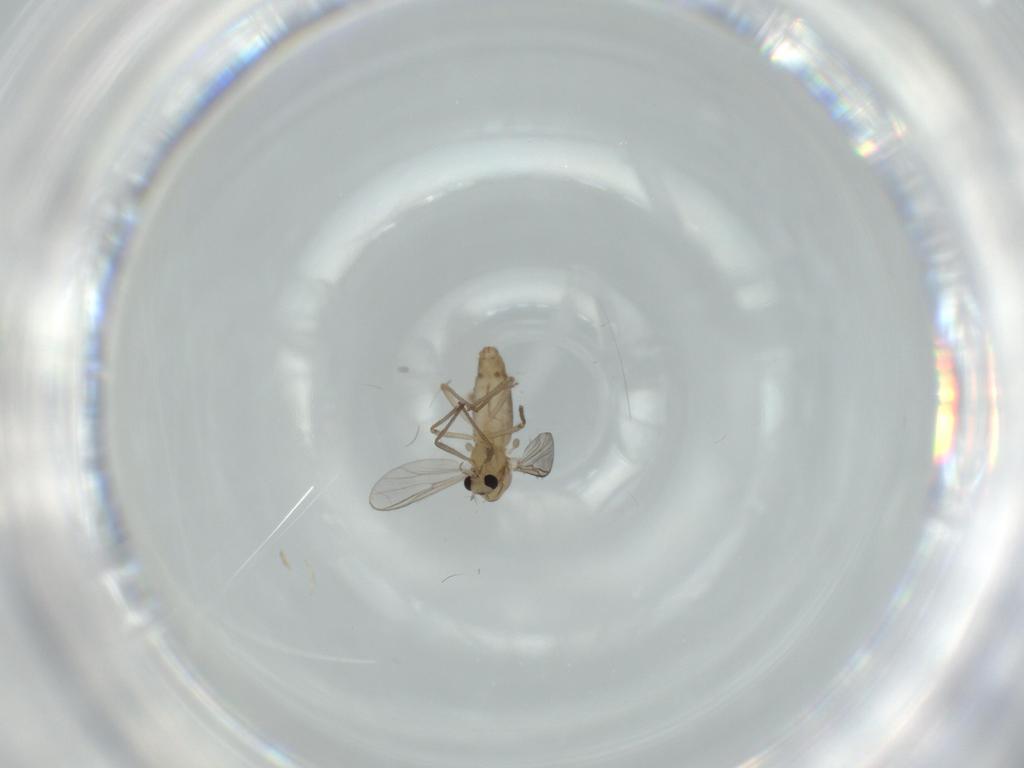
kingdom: Animalia
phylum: Arthropoda
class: Insecta
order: Diptera
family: Chironomidae
